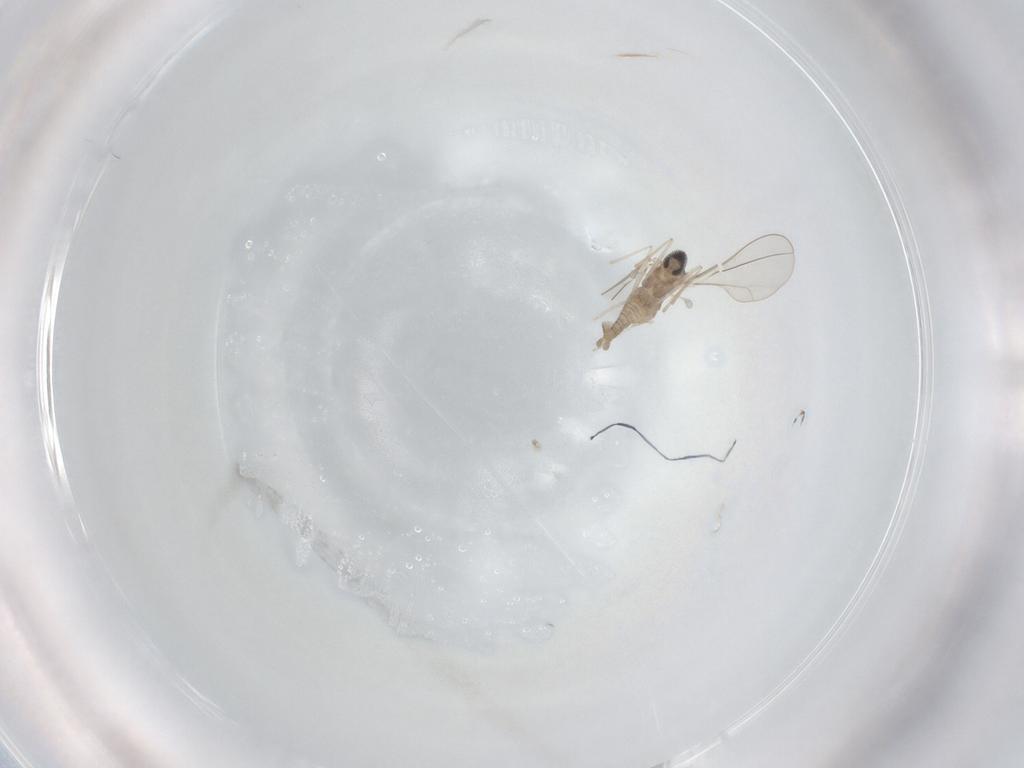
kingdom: Animalia
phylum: Arthropoda
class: Insecta
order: Diptera
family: Cecidomyiidae
